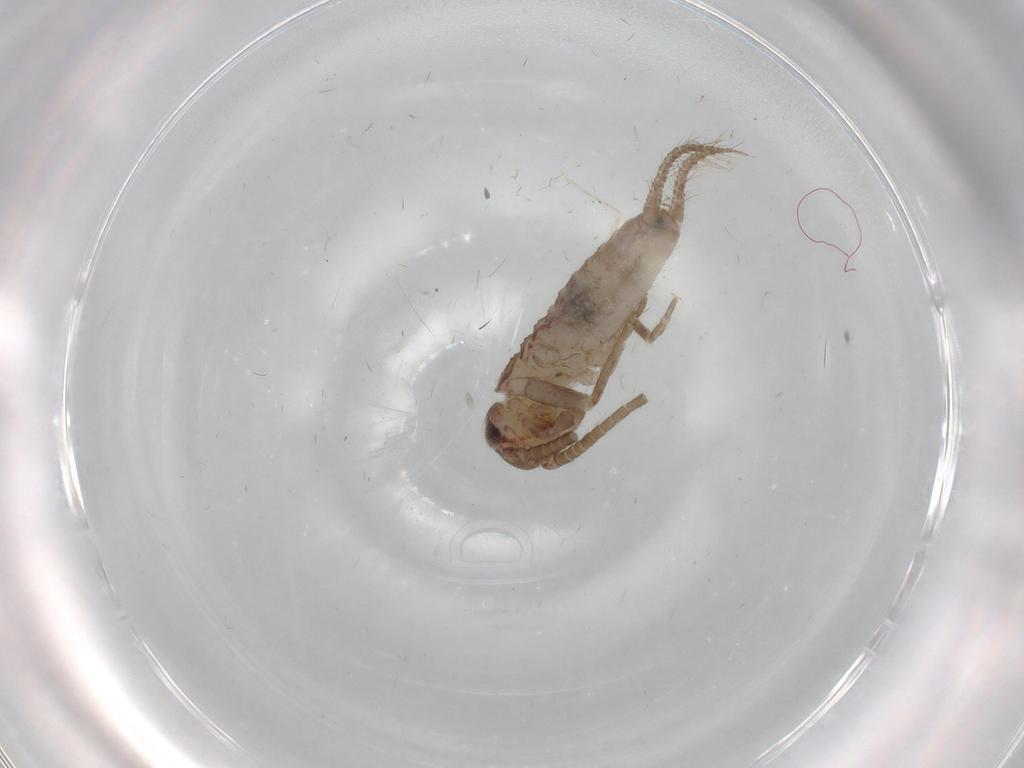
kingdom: Animalia
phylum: Arthropoda
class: Insecta
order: Orthoptera
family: Gryllidae
